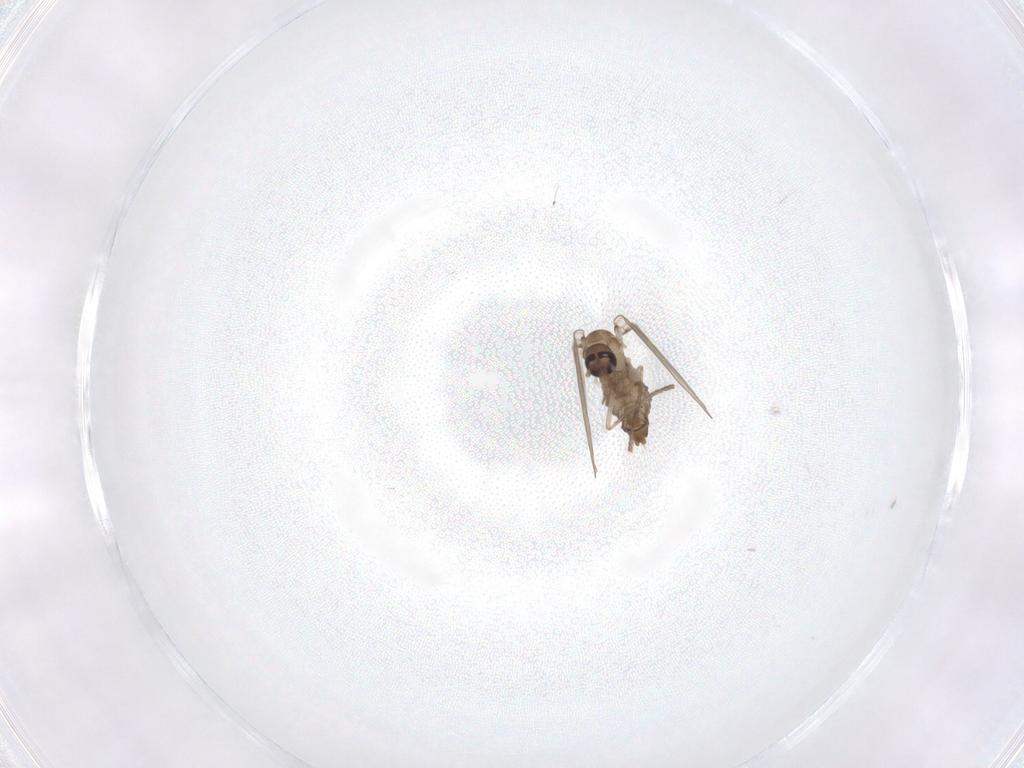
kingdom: Animalia
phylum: Arthropoda
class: Insecta
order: Diptera
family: Psychodidae
